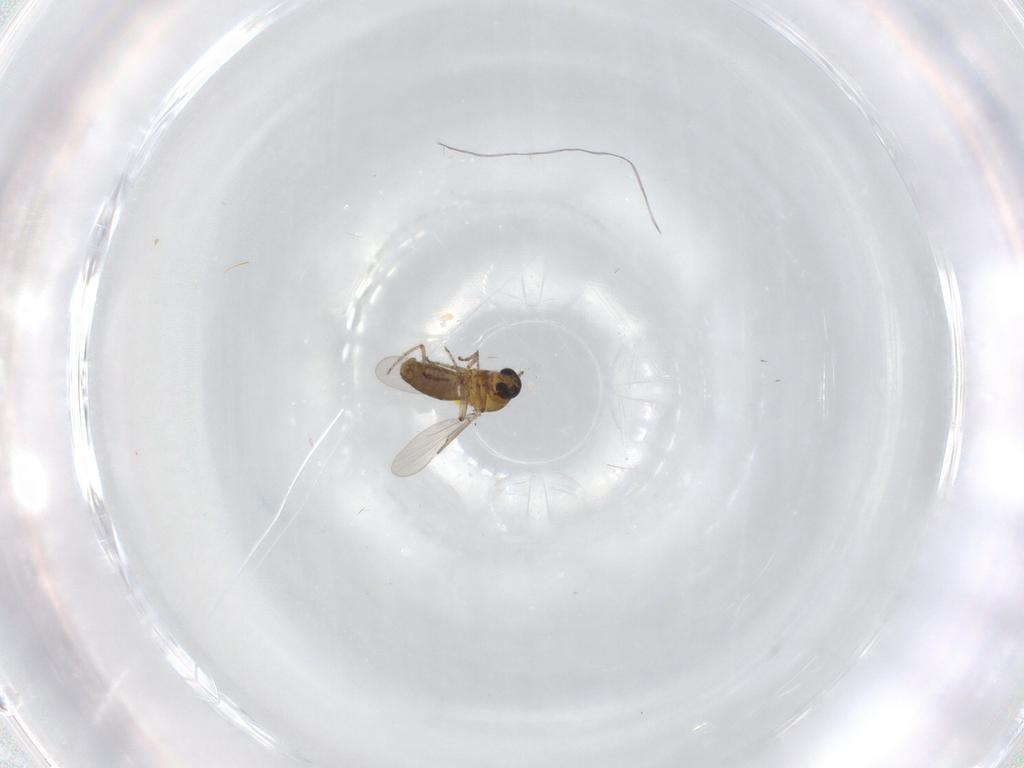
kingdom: Animalia
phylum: Arthropoda
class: Insecta
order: Diptera
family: Ceratopogonidae
